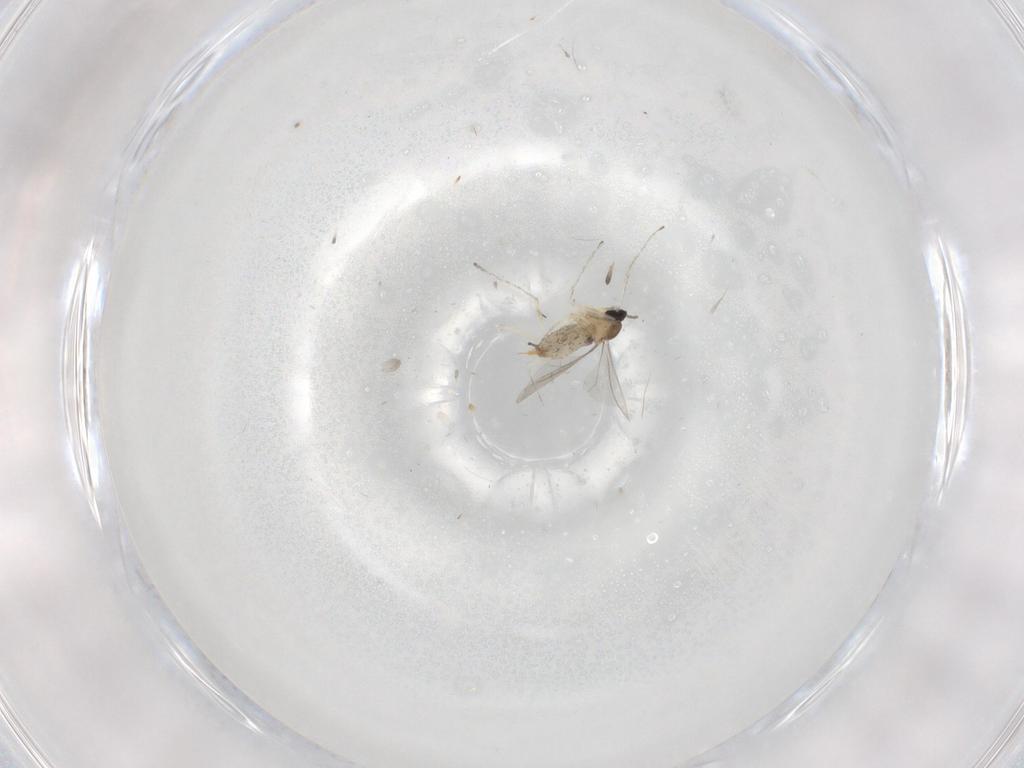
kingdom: Animalia
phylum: Arthropoda
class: Insecta
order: Diptera
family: Cecidomyiidae
